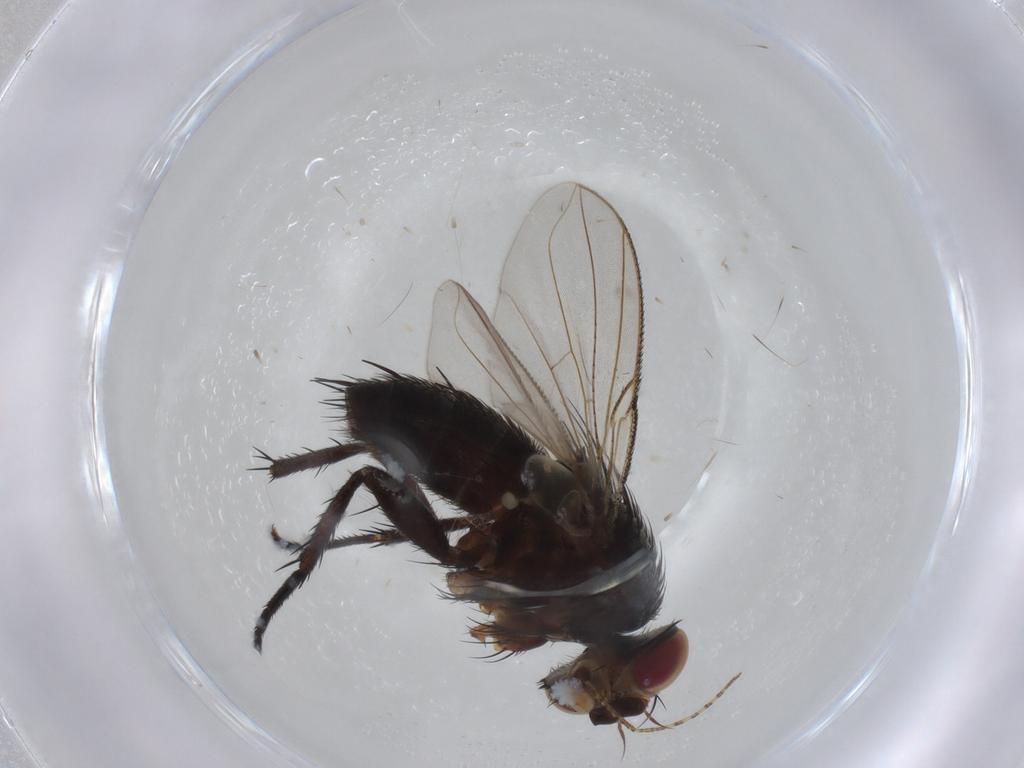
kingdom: Animalia
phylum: Arthropoda
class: Insecta
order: Diptera
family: Tachinidae
